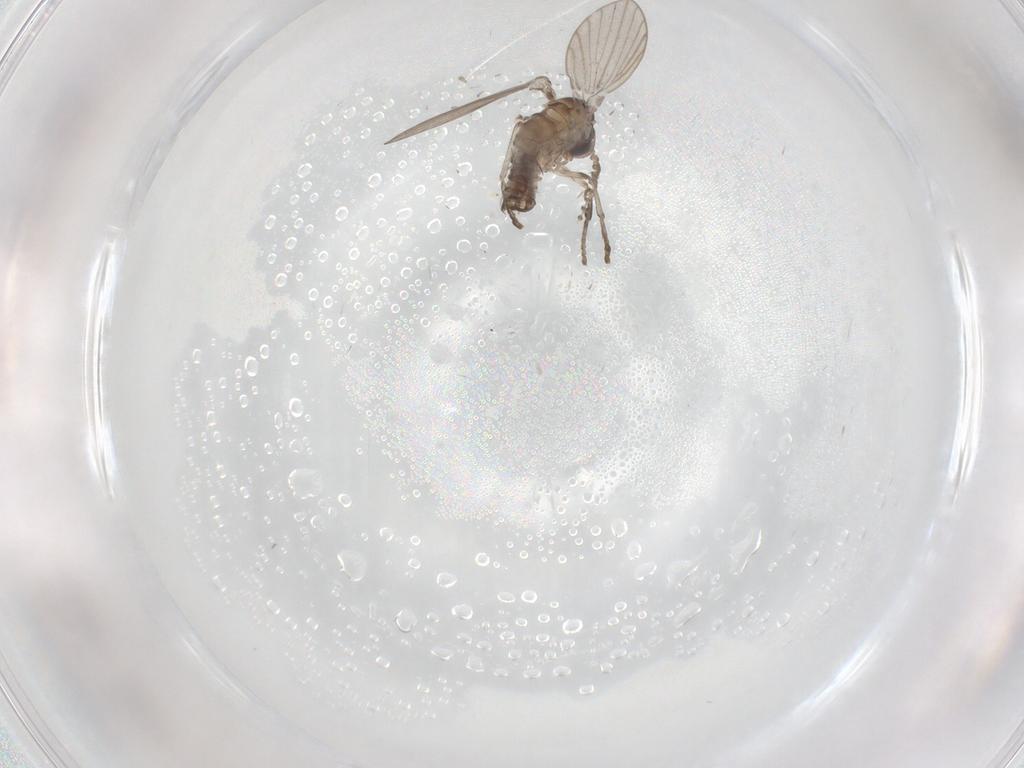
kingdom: Animalia
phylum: Arthropoda
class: Insecta
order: Diptera
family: Psychodidae
